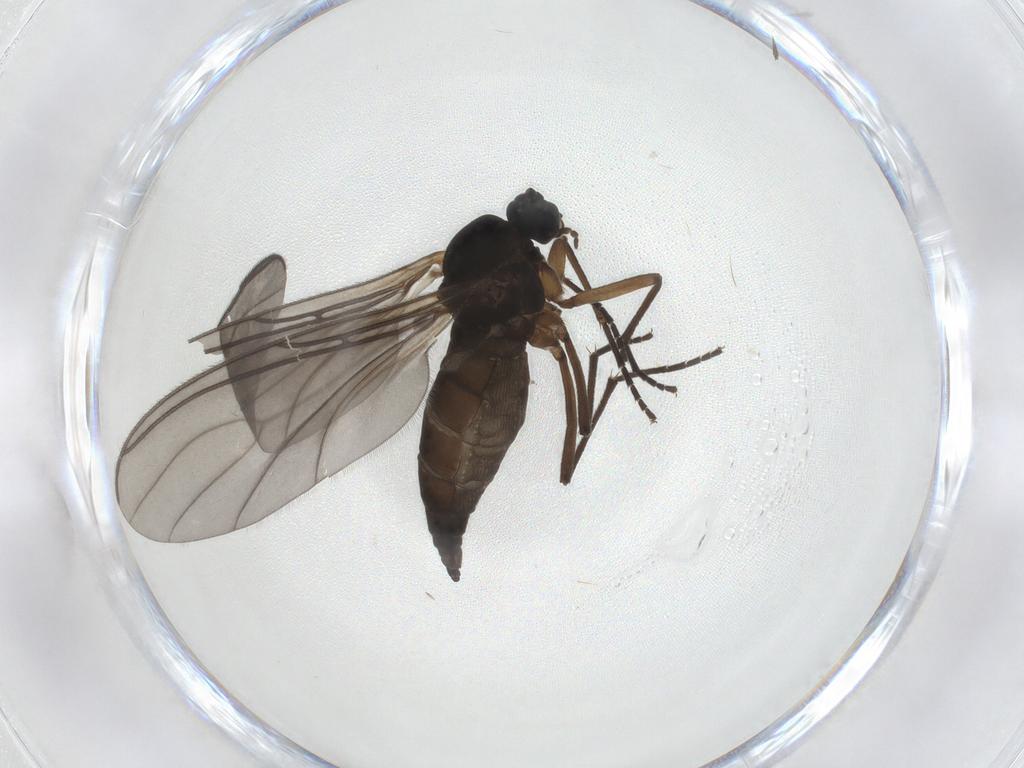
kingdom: Animalia
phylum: Arthropoda
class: Insecta
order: Diptera
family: Sciaridae
